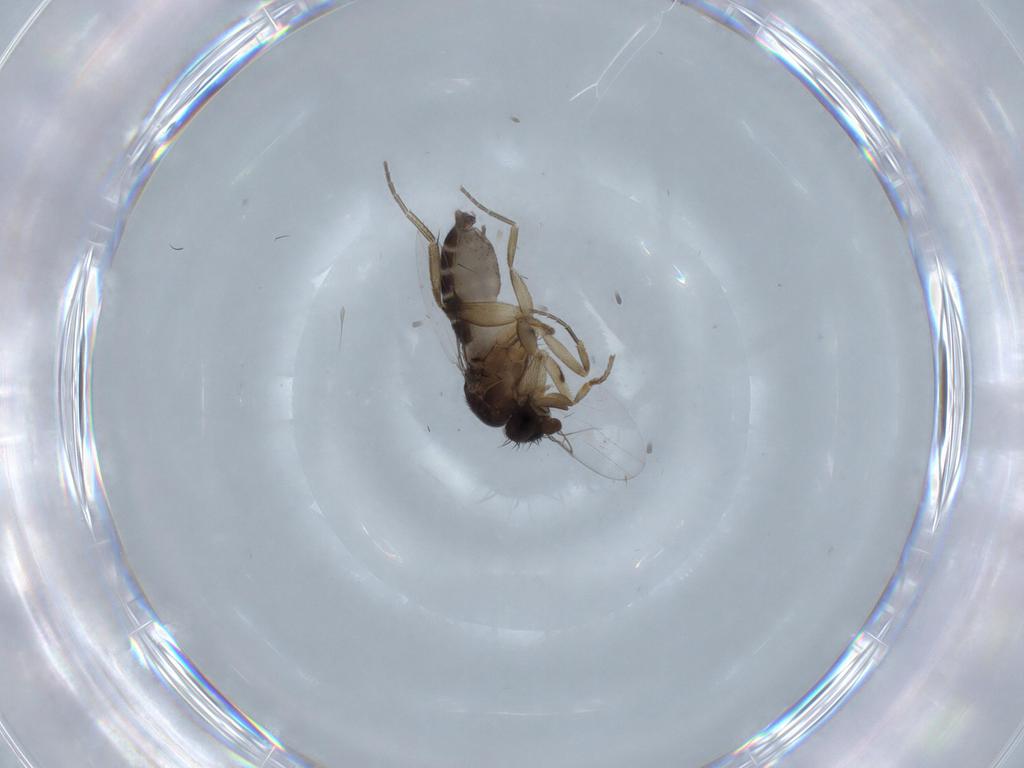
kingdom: Animalia
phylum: Arthropoda
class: Insecta
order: Diptera
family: Phoridae
